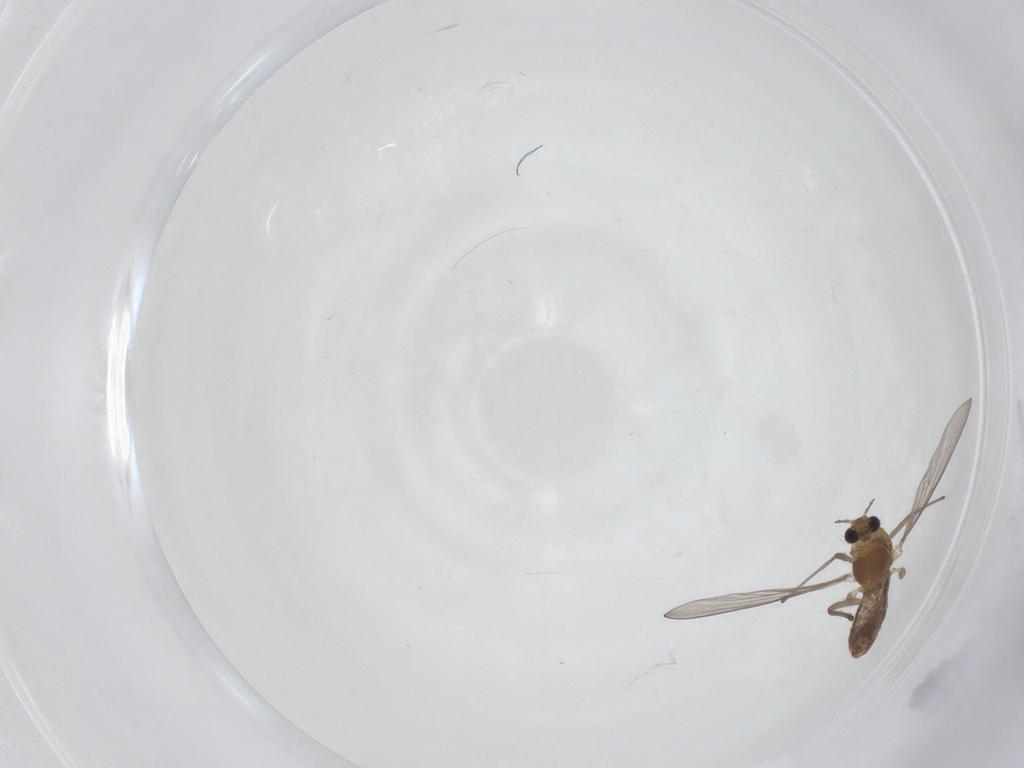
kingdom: Animalia
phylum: Arthropoda
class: Insecta
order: Diptera
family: Chironomidae
